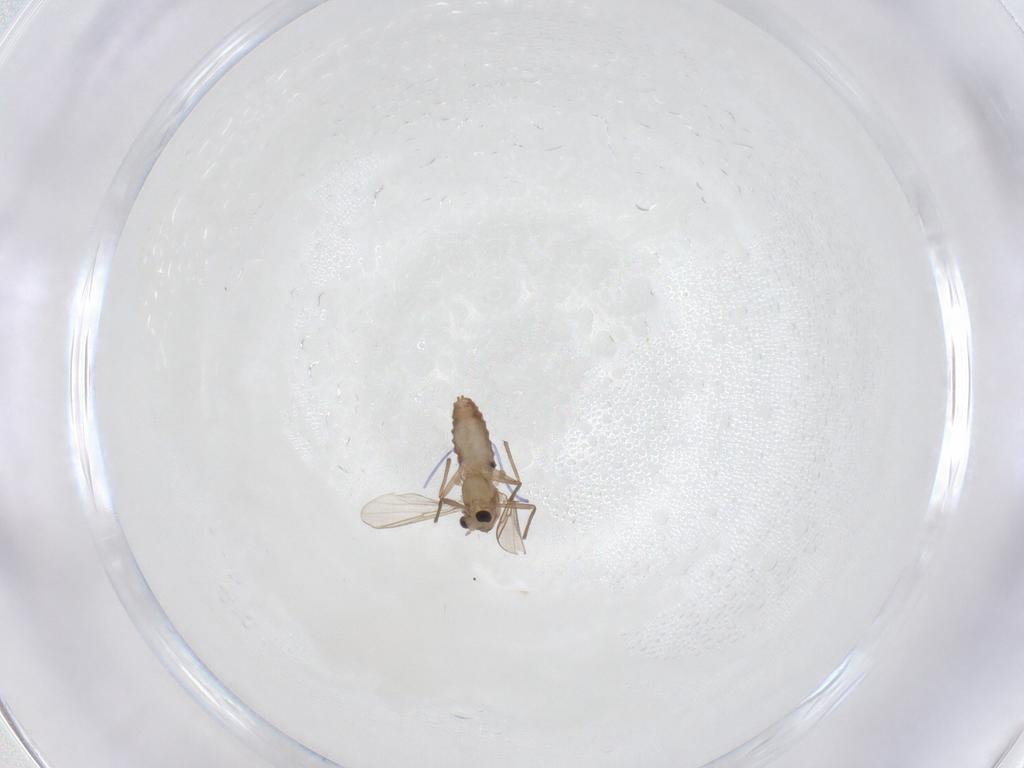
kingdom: Animalia
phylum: Arthropoda
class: Insecta
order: Diptera
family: Chironomidae
